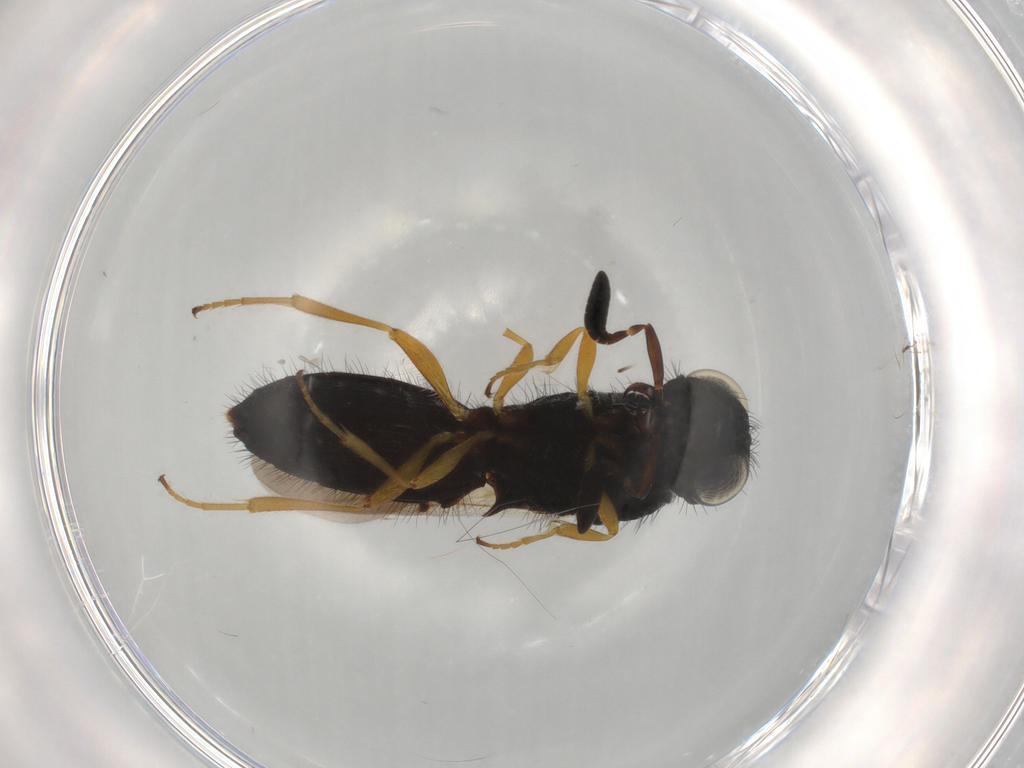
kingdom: Animalia
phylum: Arthropoda
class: Insecta
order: Hymenoptera
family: Scelionidae
